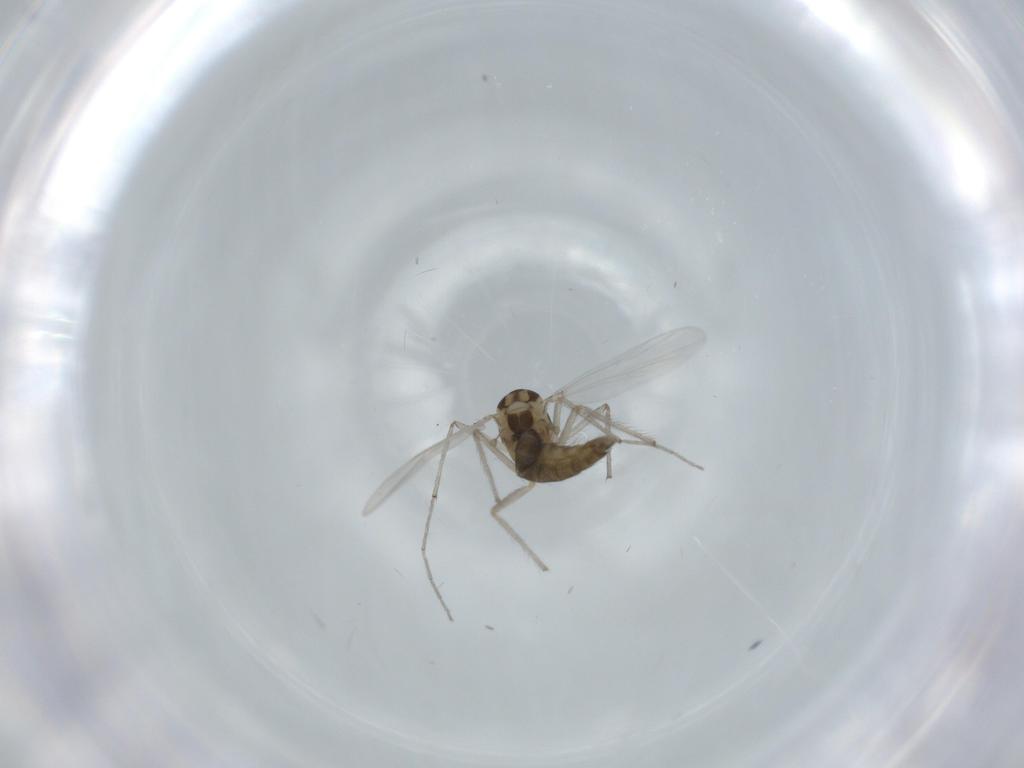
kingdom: Animalia
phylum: Arthropoda
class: Insecta
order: Diptera
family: Chironomidae
